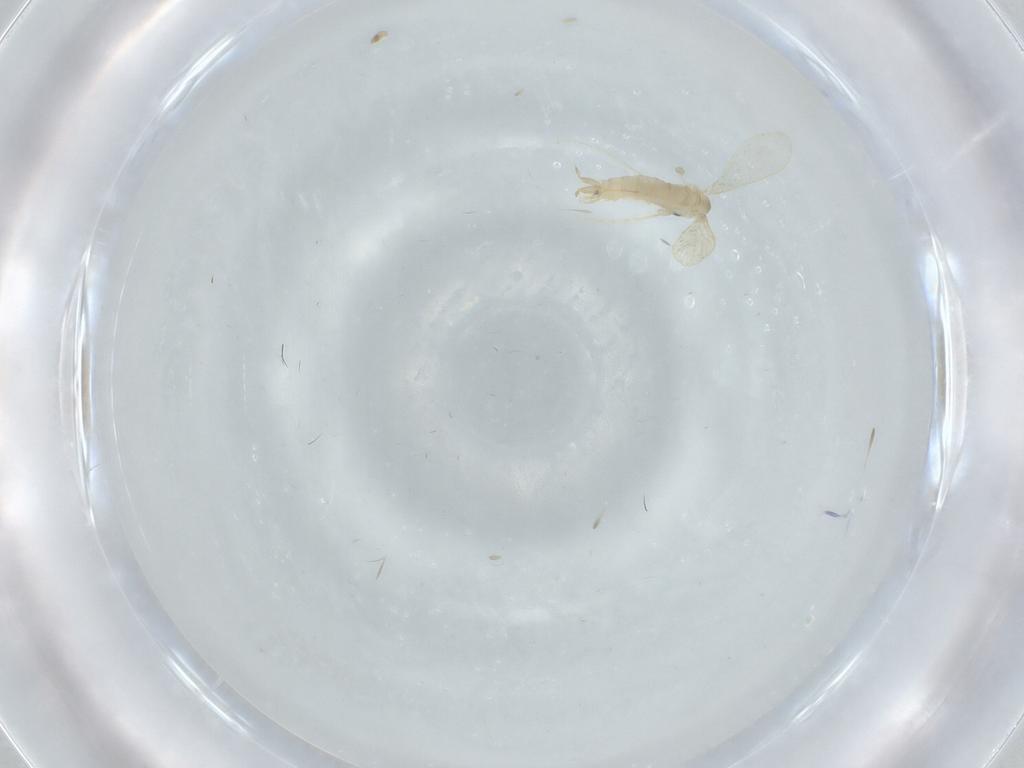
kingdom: Animalia
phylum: Arthropoda
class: Insecta
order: Diptera
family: Psychodidae
